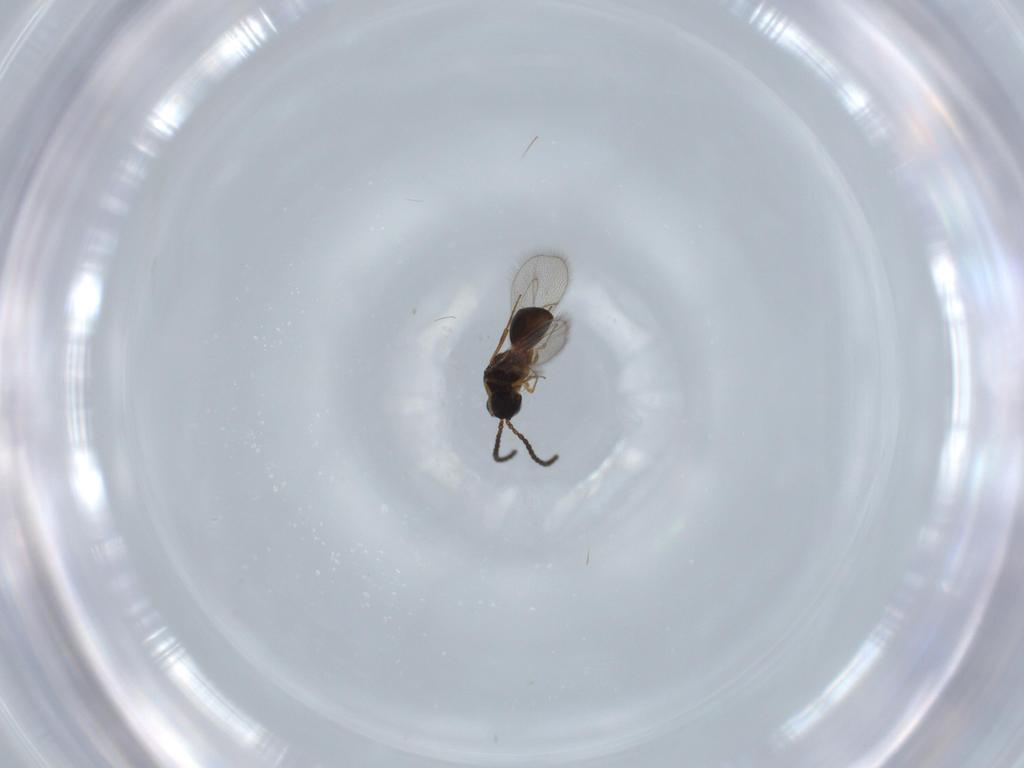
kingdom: Animalia
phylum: Arthropoda
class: Insecta
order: Hymenoptera
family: Figitidae
